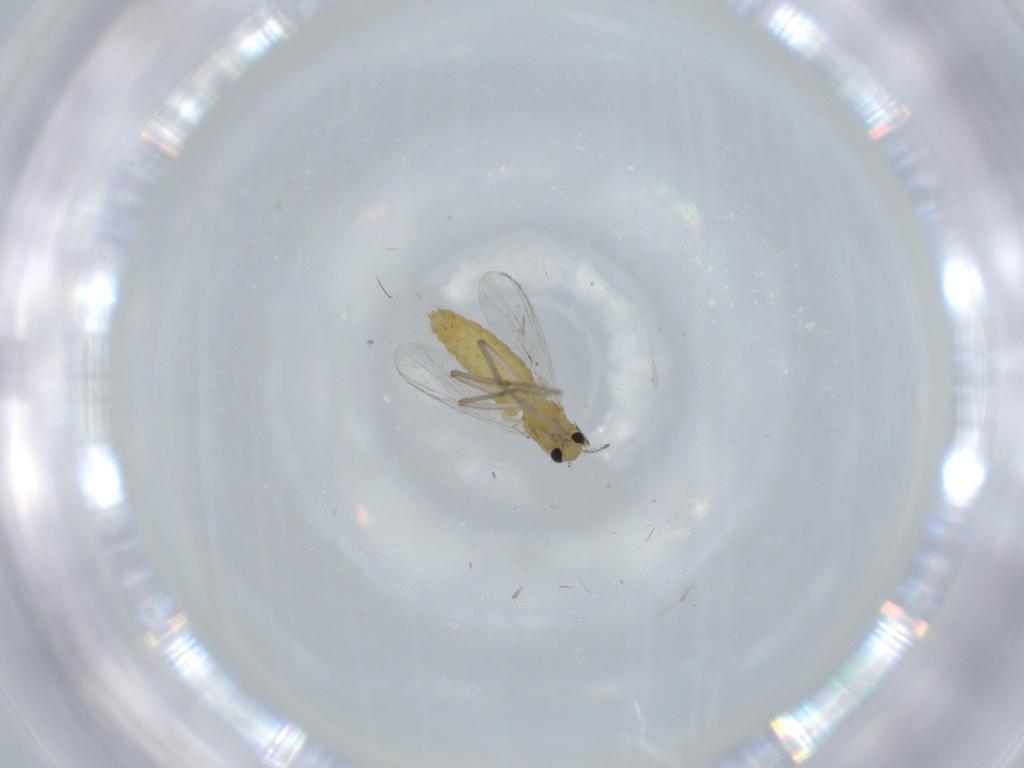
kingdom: Animalia
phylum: Arthropoda
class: Insecta
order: Diptera
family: Chironomidae
